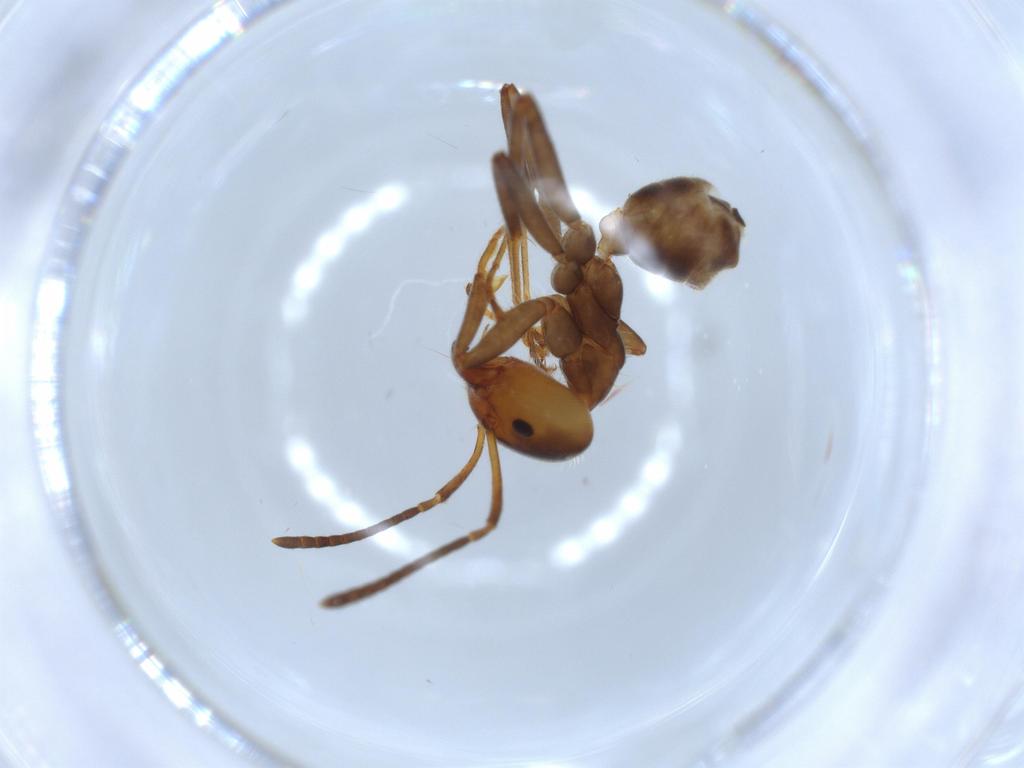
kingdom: Animalia
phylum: Arthropoda
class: Insecta
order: Hymenoptera
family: Formicidae
